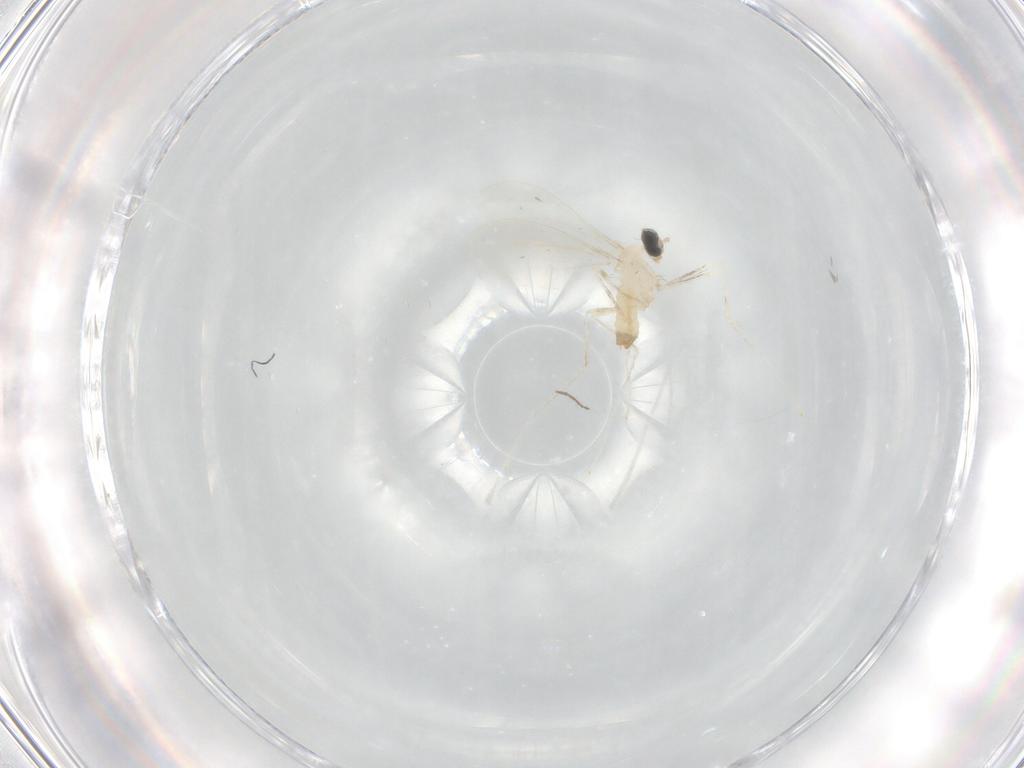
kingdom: Animalia
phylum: Arthropoda
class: Insecta
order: Diptera
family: Cecidomyiidae
